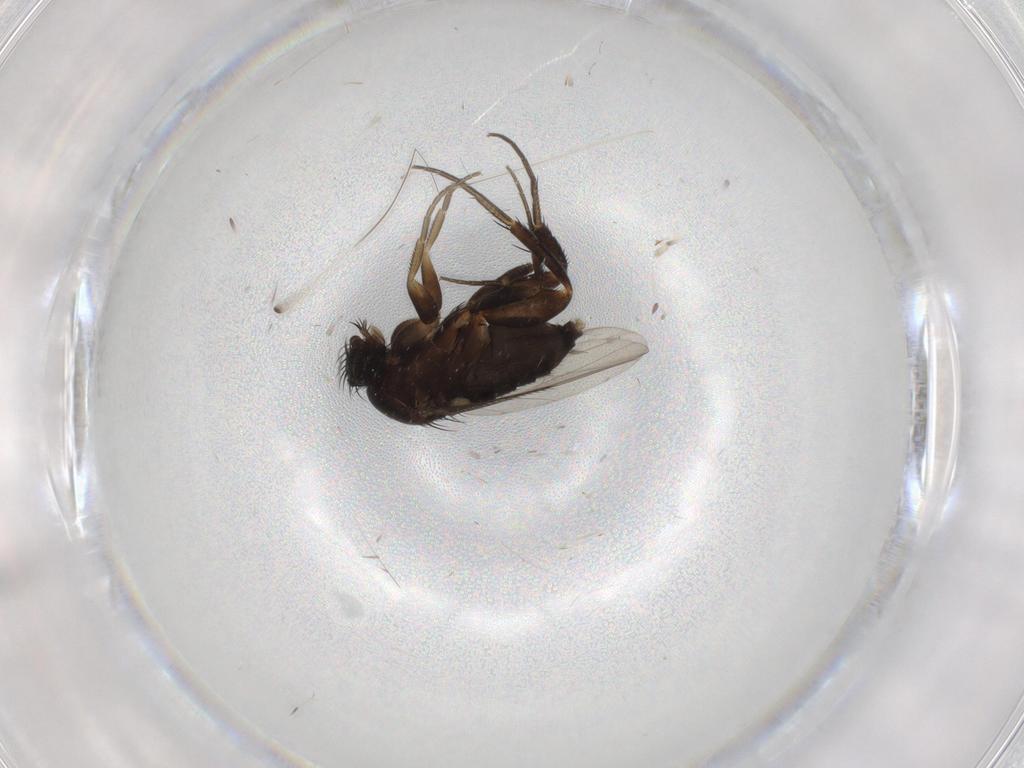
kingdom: Animalia
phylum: Arthropoda
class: Insecta
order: Diptera
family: Phoridae
